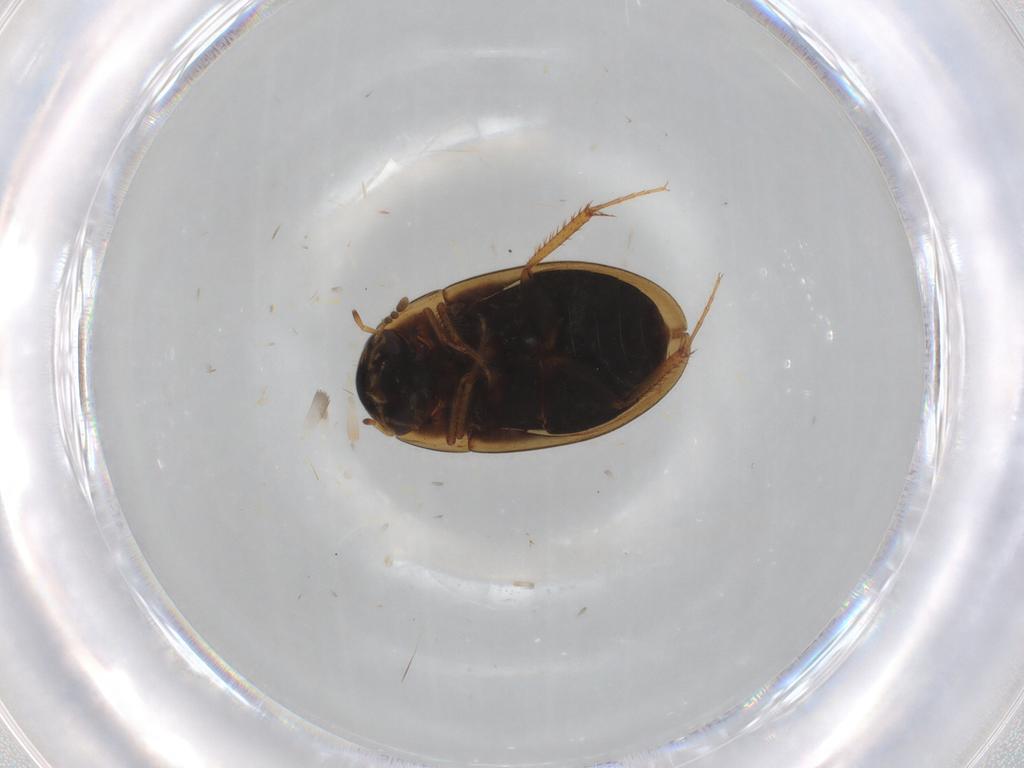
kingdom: Animalia
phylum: Arthropoda
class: Insecta
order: Coleoptera
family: Hydrophilidae
